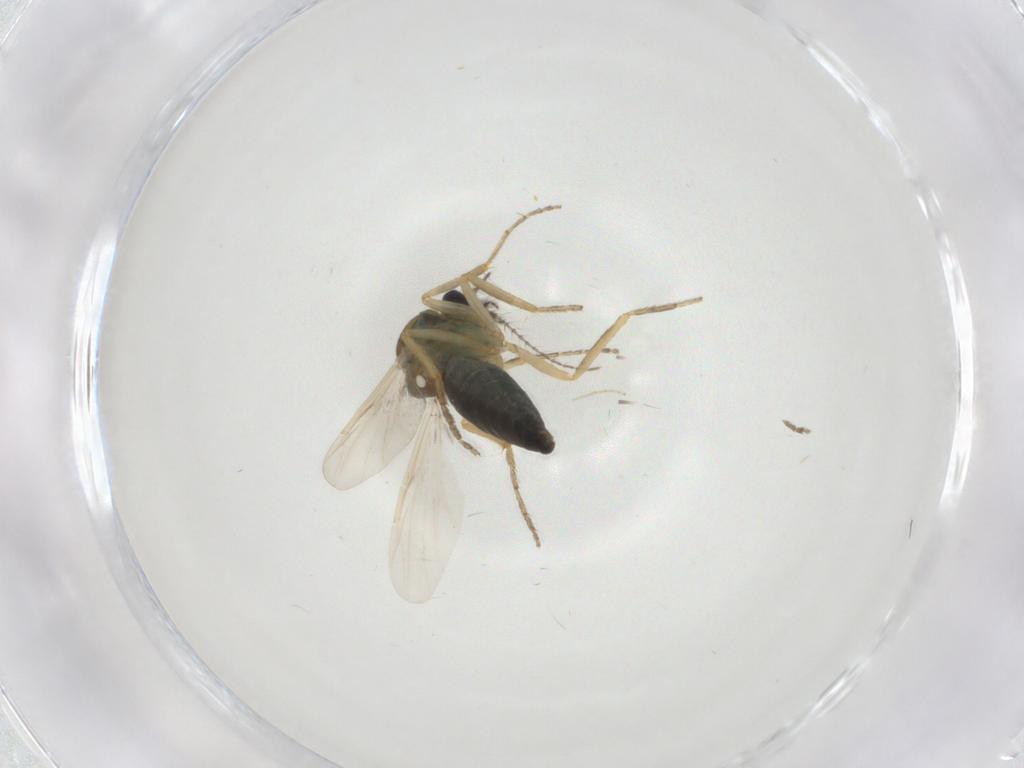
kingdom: Animalia
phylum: Arthropoda
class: Insecta
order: Diptera
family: Ceratopogonidae
